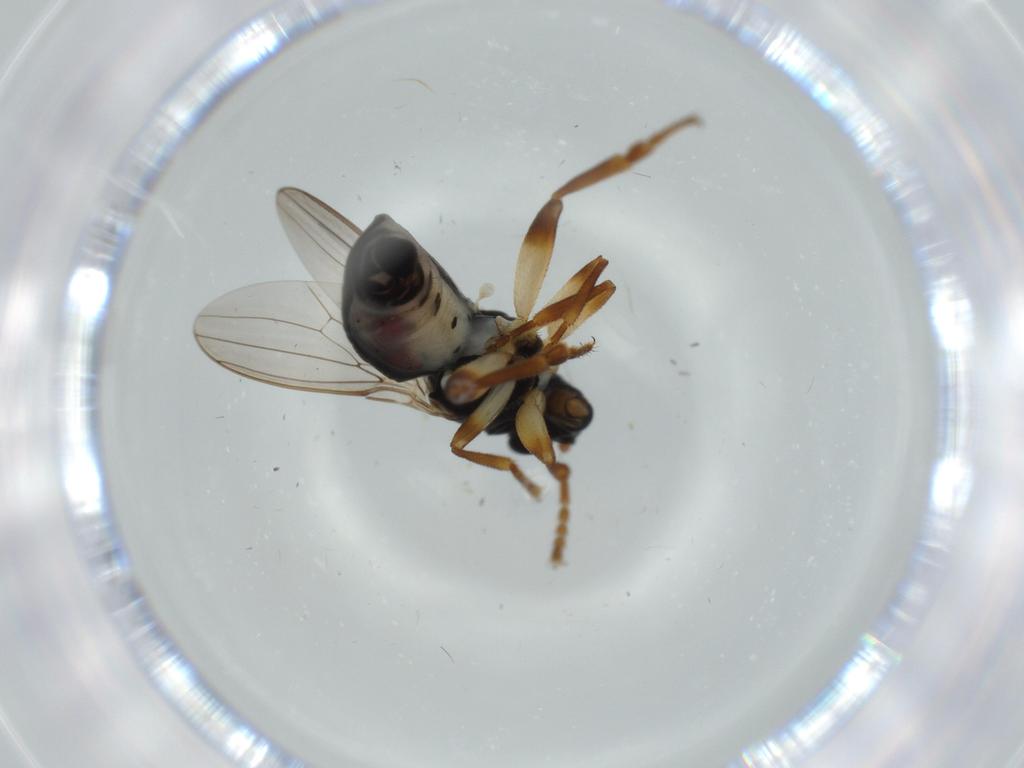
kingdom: Animalia
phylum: Arthropoda
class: Insecta
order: Diptera
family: Sphaeroceridae
